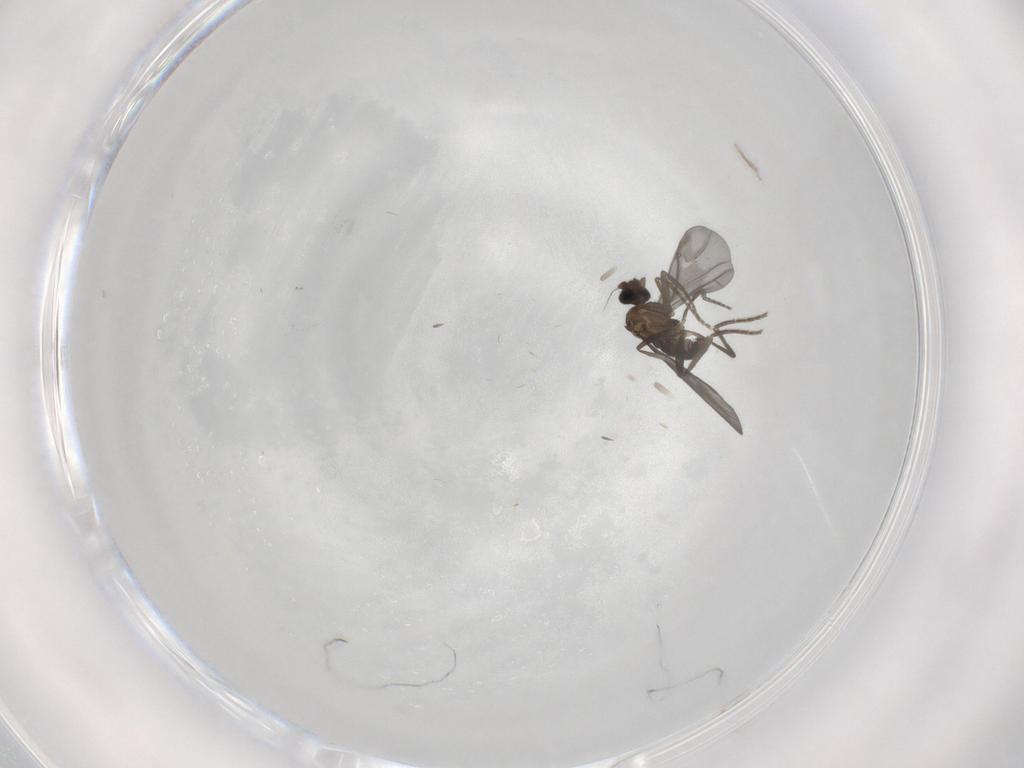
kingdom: Animalia
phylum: Arthropoda
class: Insecta
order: Diptera
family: Phoridae
